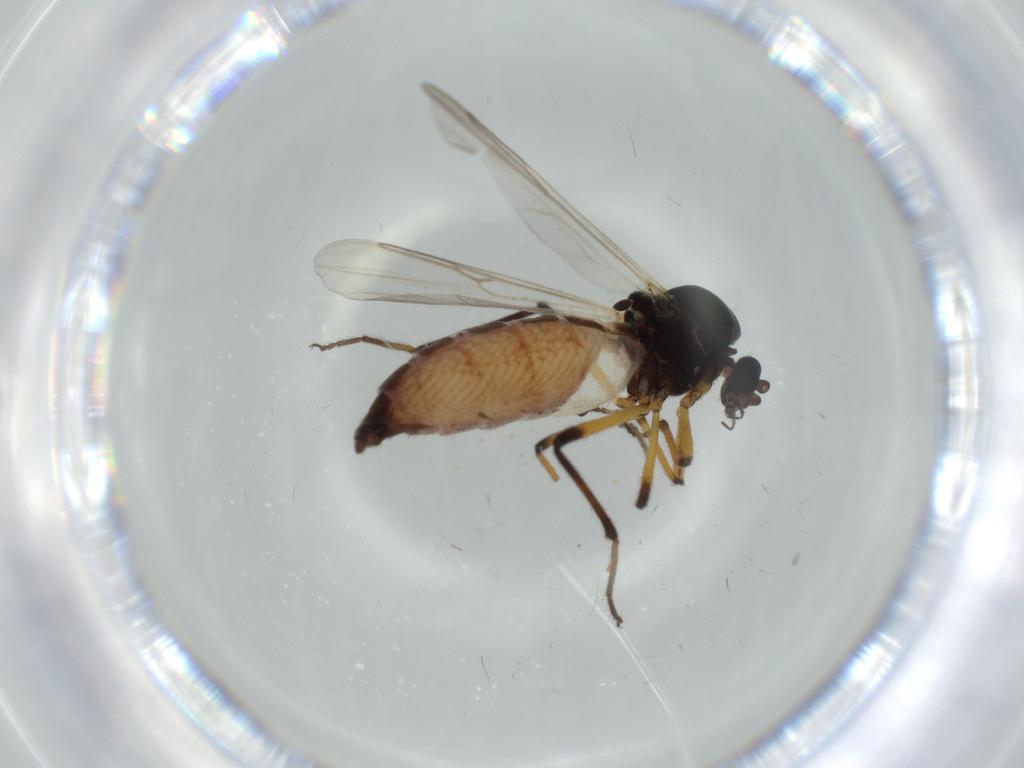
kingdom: Animalia
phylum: Arthropoda
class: Insecta
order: Diptera
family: Ceratopogonidae
